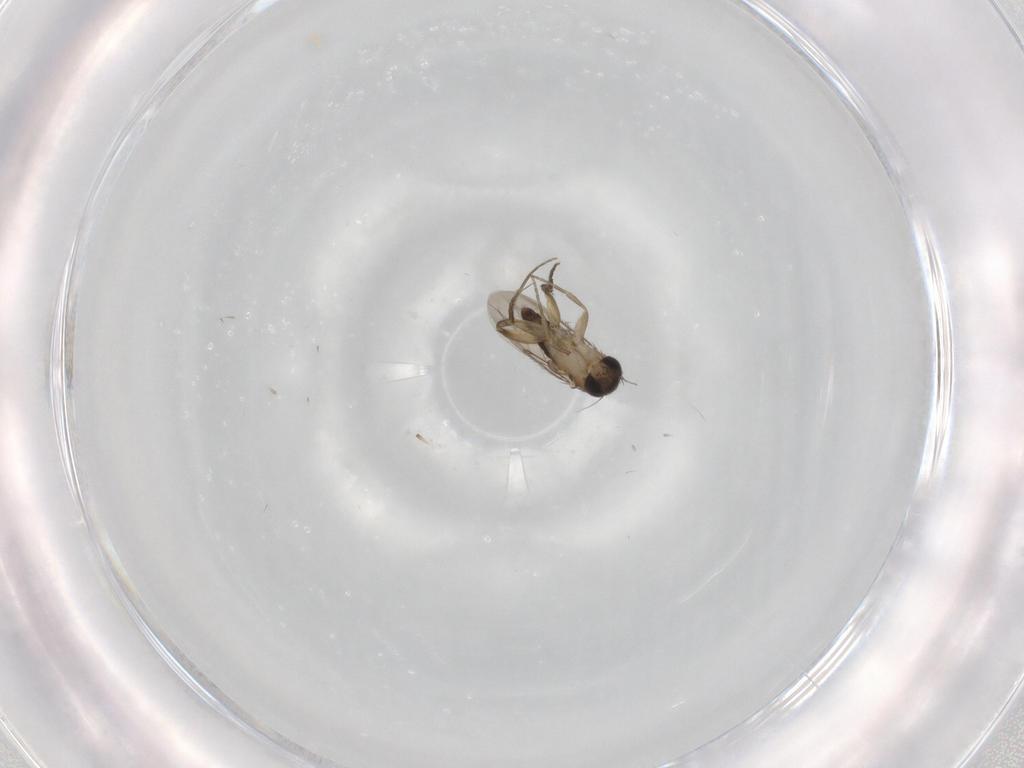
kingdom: Animalia
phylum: Arthropoda
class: Insecta
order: Diptera
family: Phoridae
